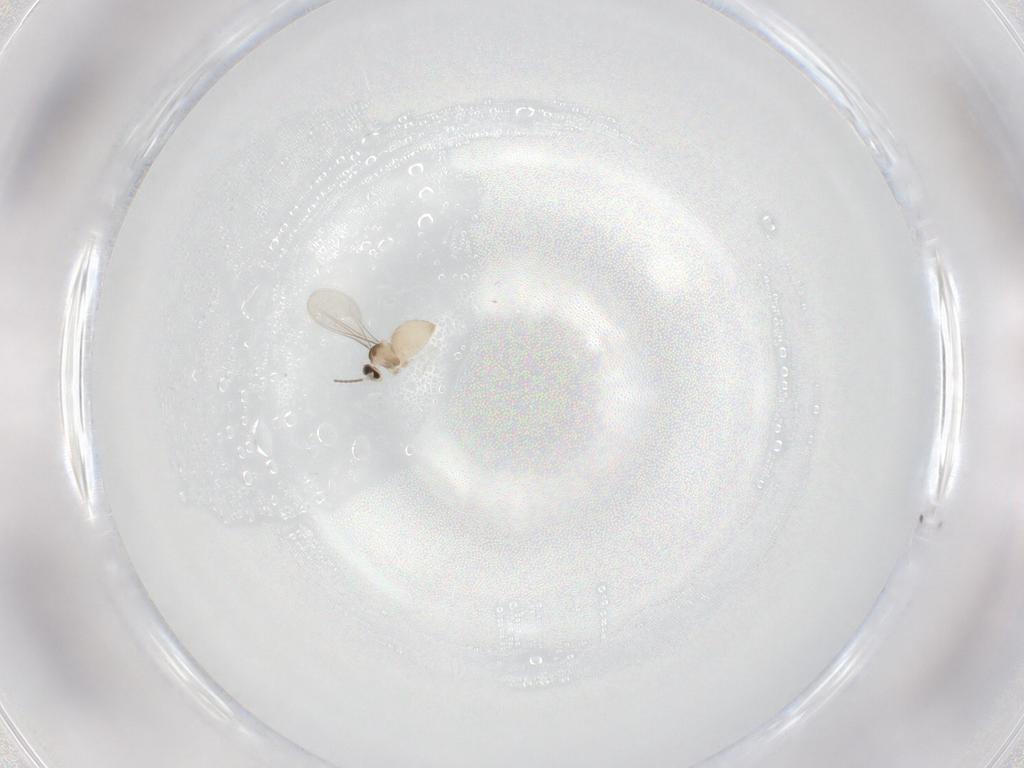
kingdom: Animalia
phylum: Arthropoda
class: Insecta
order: Diptera
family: Cecidomyiidae
